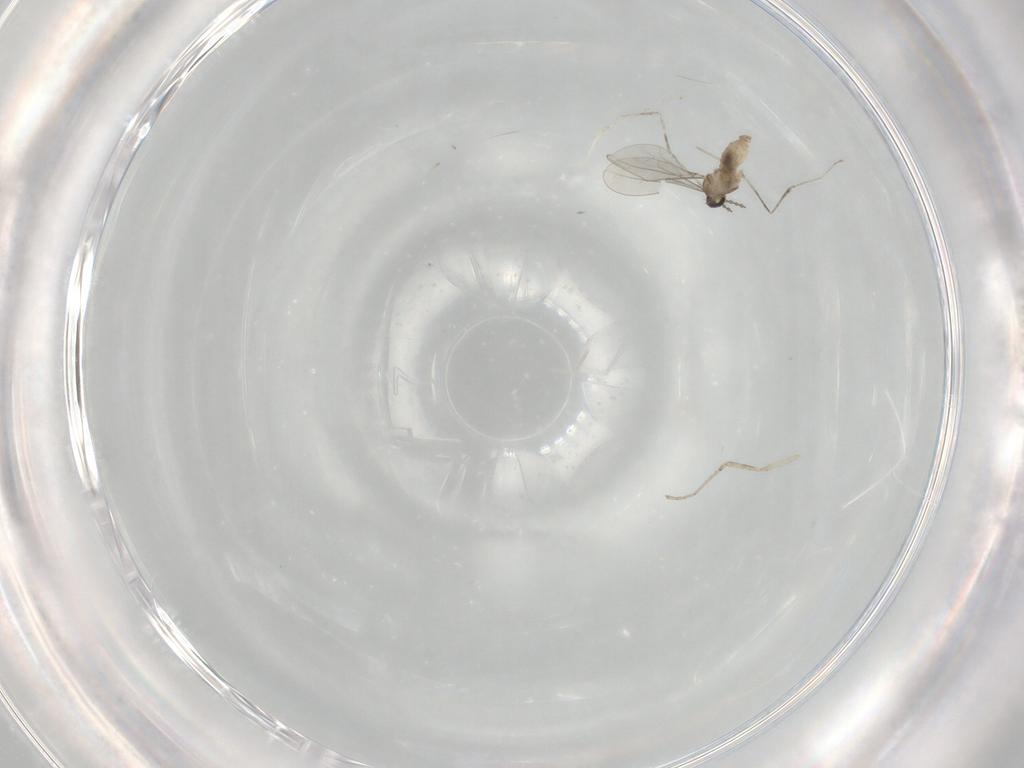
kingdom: Animalia
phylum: Arthropoda
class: Insecta
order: Diptera
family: Cecidomyiidae
